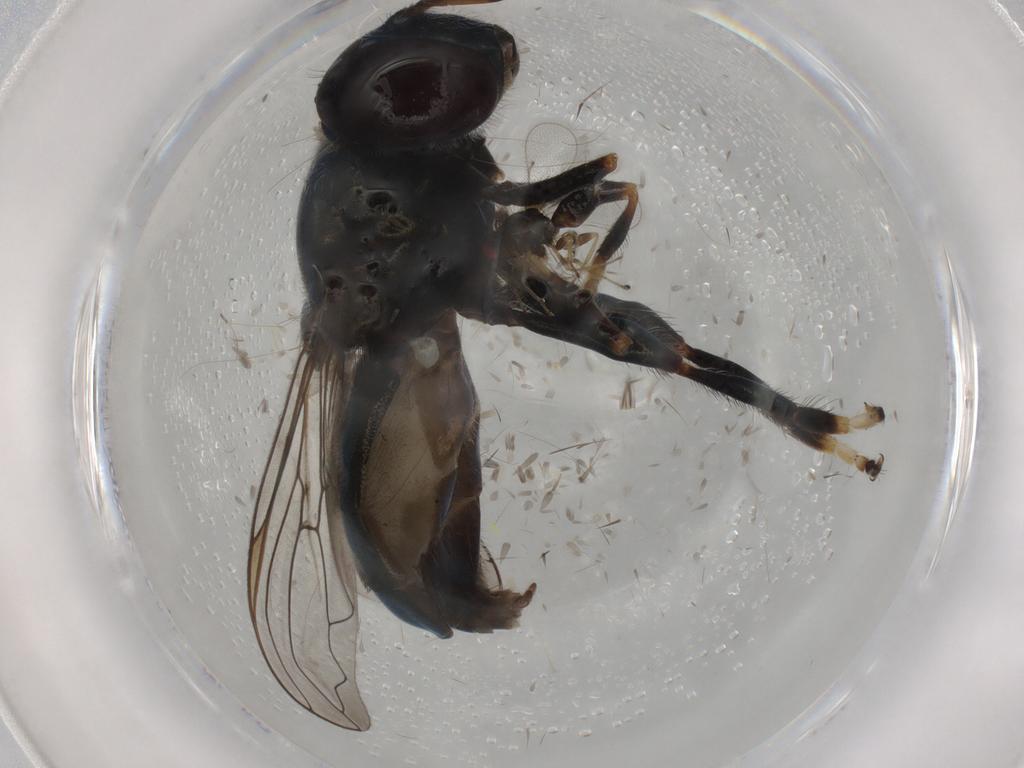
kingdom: Animalia
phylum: Arthropoda
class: Insecta
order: Diptera
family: Syrphidae
